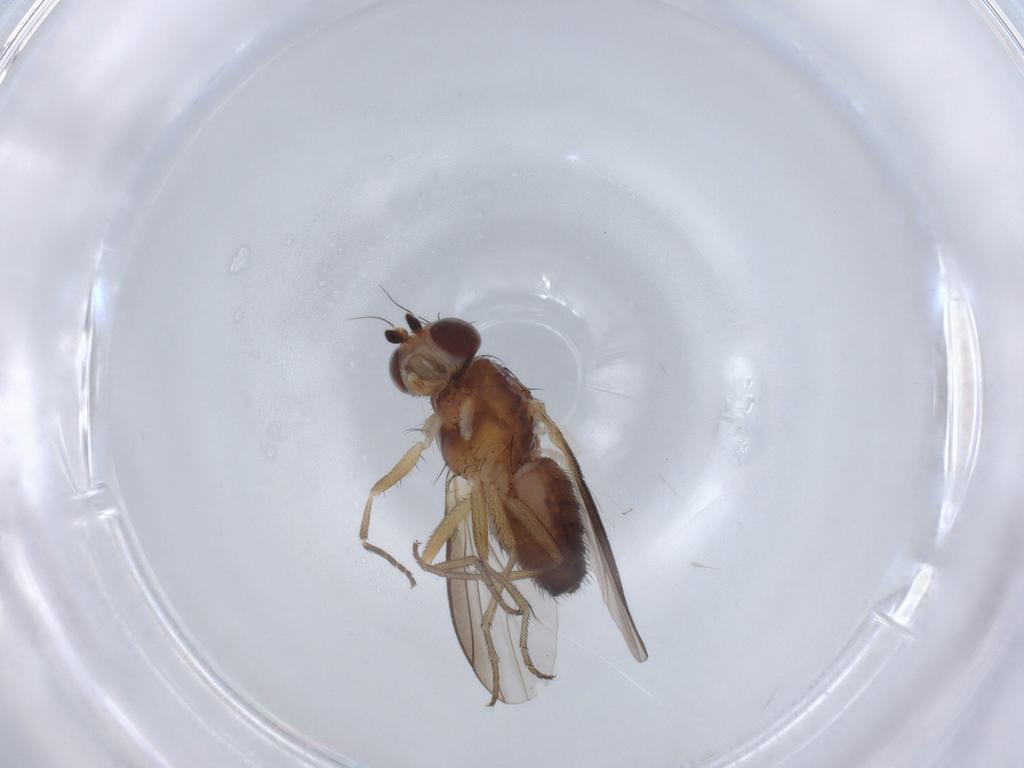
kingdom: Animalia
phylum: Arthropoda
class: Insecta
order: Diptera
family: Heleomyzidae
